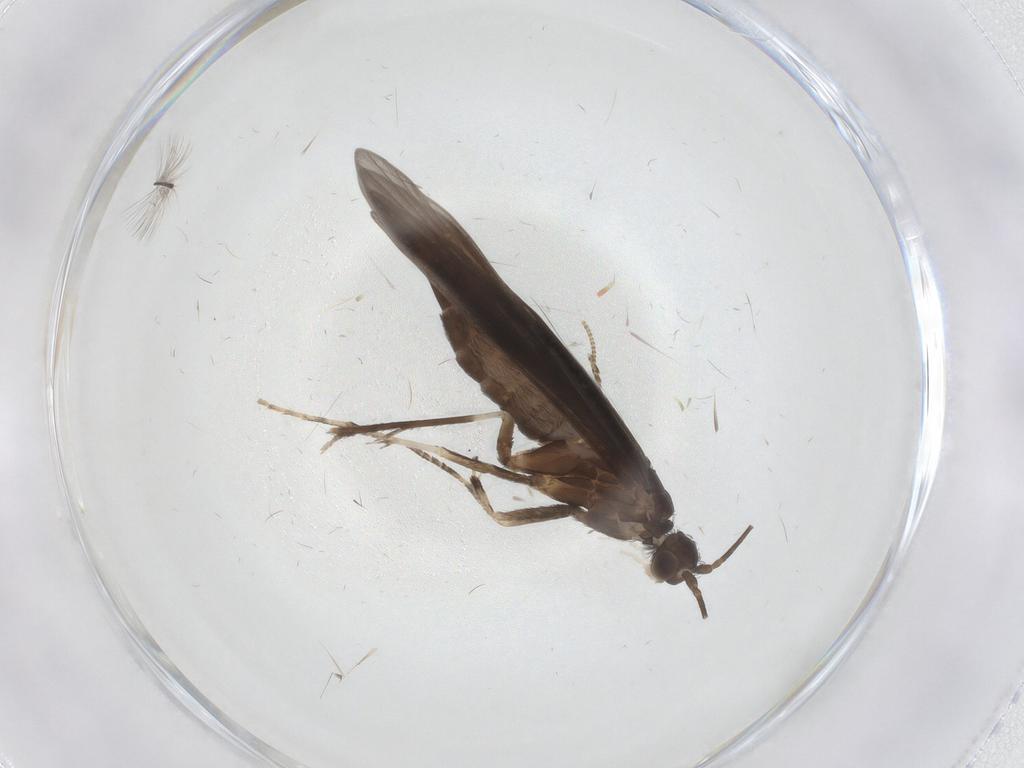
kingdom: Animalia
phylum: Arthropoda
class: Insecta
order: Trichoptera
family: Xiphocentronidae
